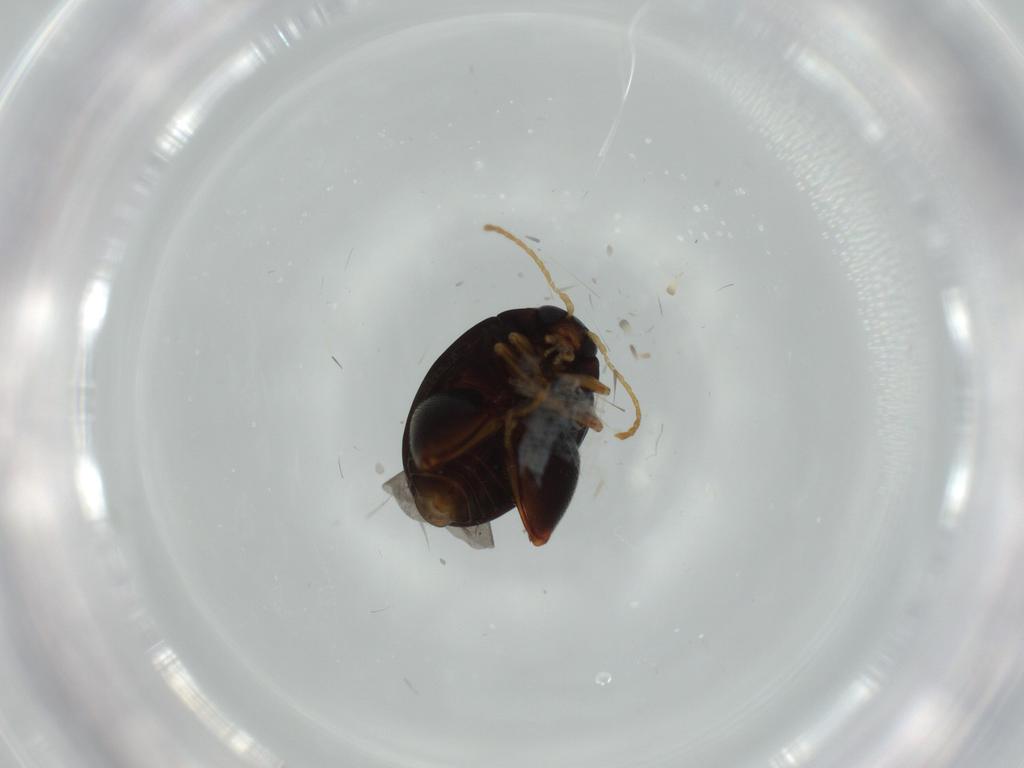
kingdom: Animalia
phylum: Arthropoda
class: Insecta
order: Coleoptera
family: Chrysomelidae
